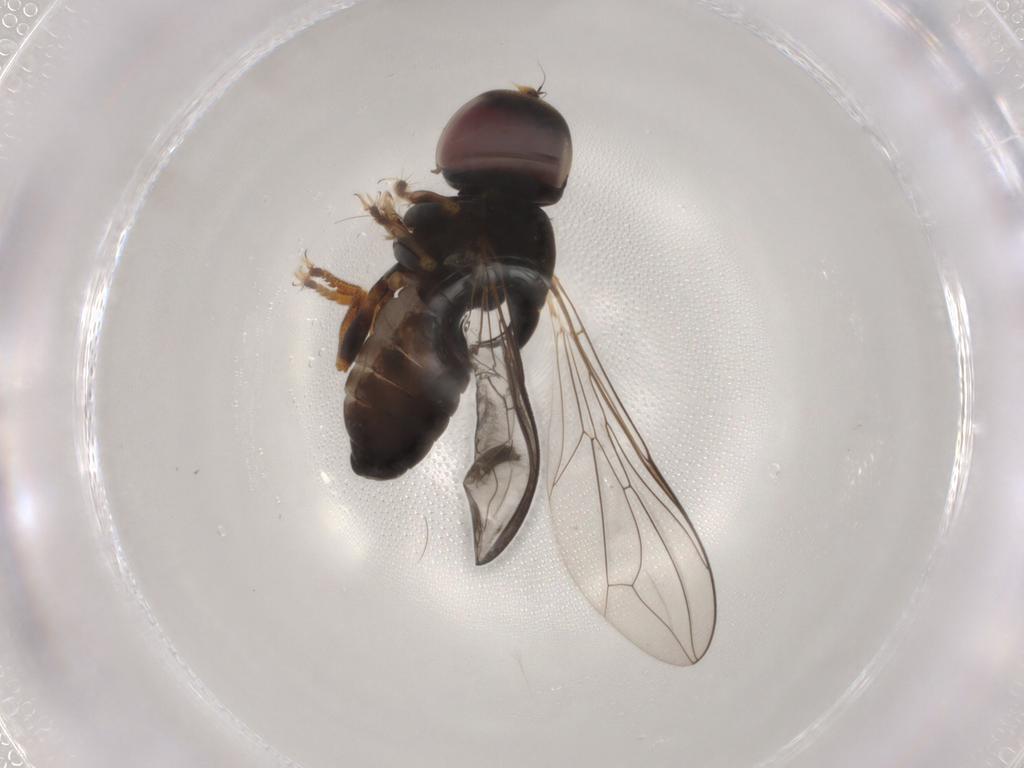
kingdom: Animalia
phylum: Arthropoda
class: Insecta
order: Diptera
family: Pipunculidae
